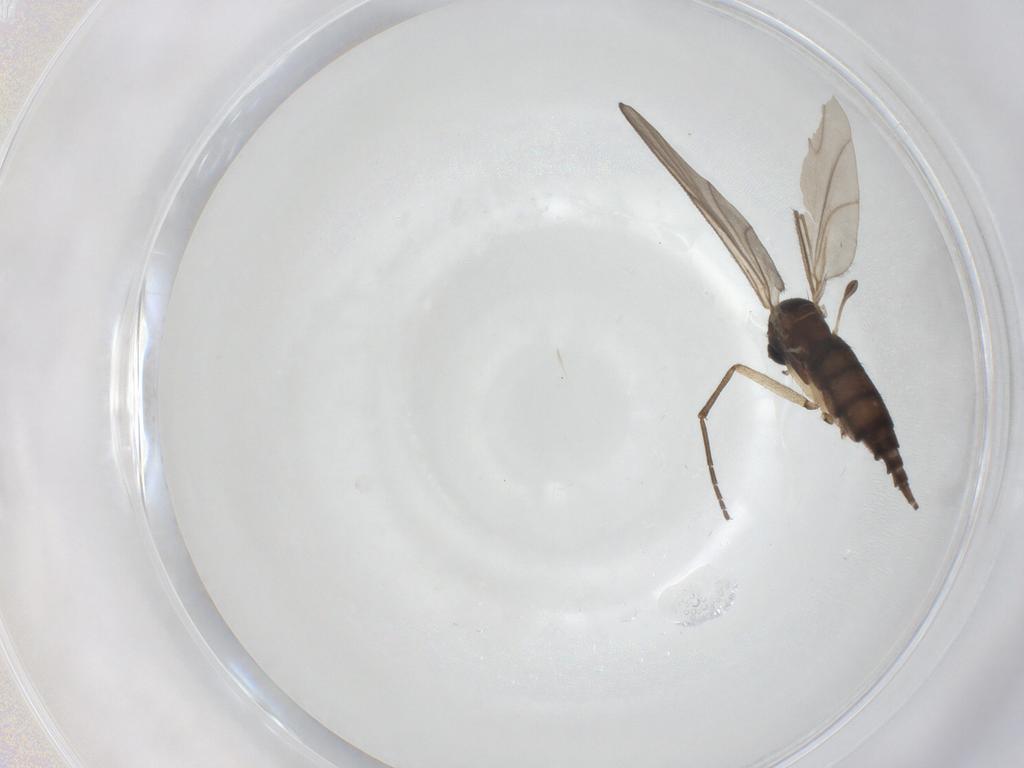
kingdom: Animalia
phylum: Arthropoda
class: Insecta
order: Diptera
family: Sciaridae
